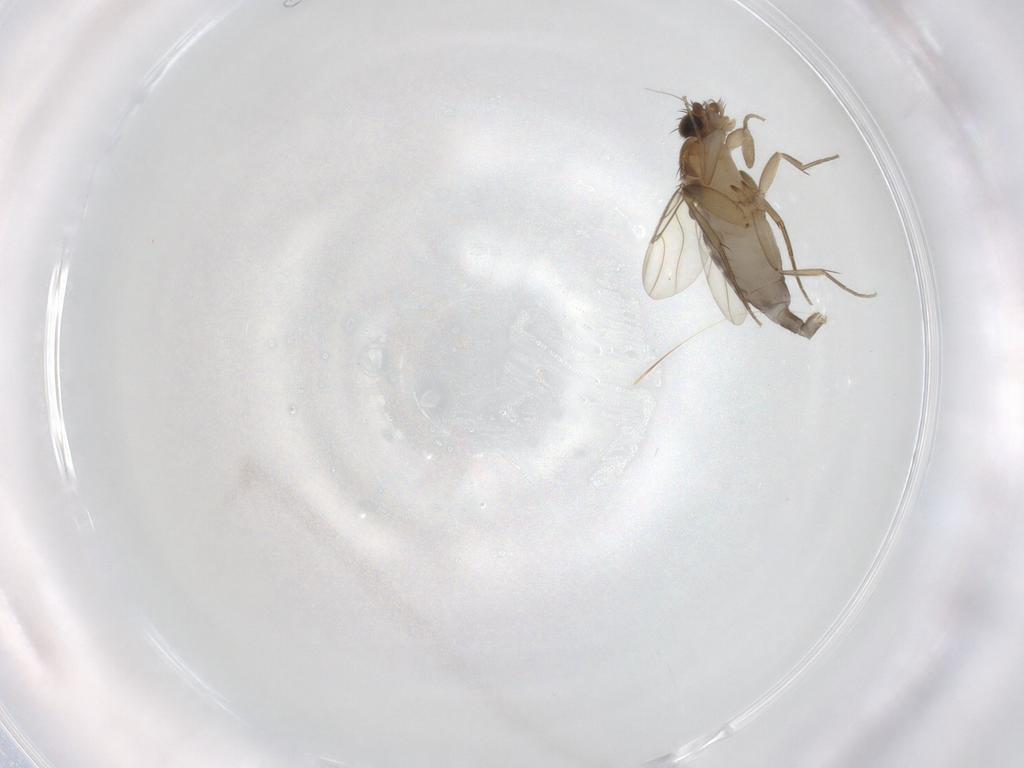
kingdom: Animalia
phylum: Arthropoda
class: Insecta
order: Diptera
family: Phoridae
